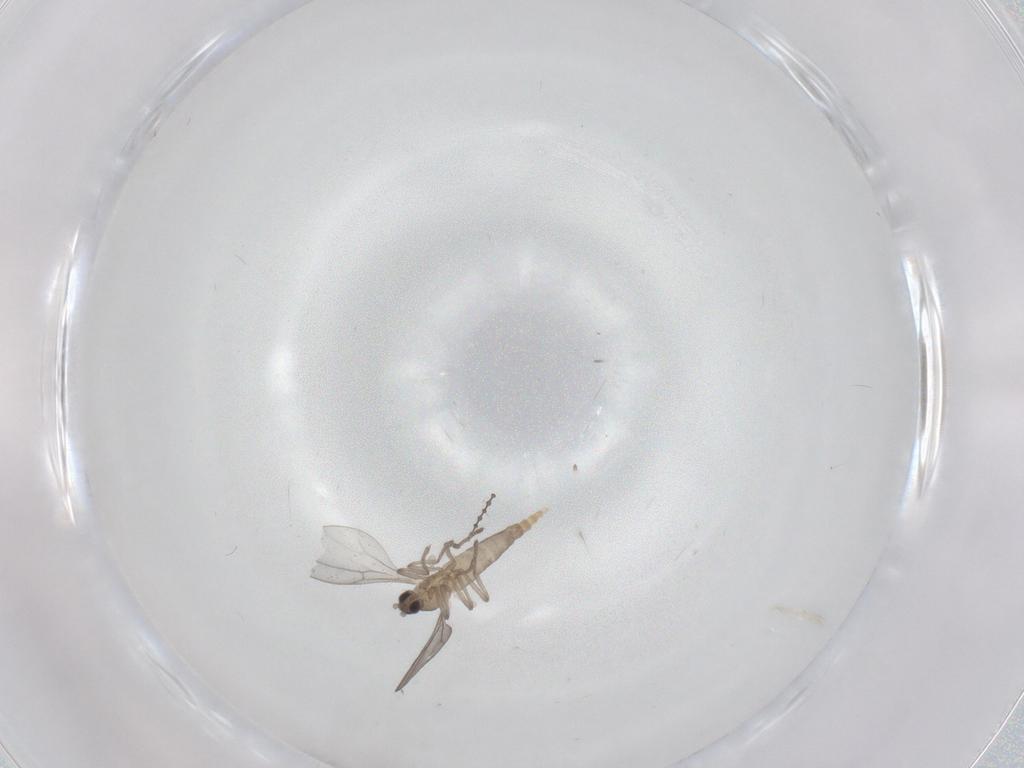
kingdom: Animalia
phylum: Arthropoda
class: Insecta
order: Diptera
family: Cecidomyiidae
